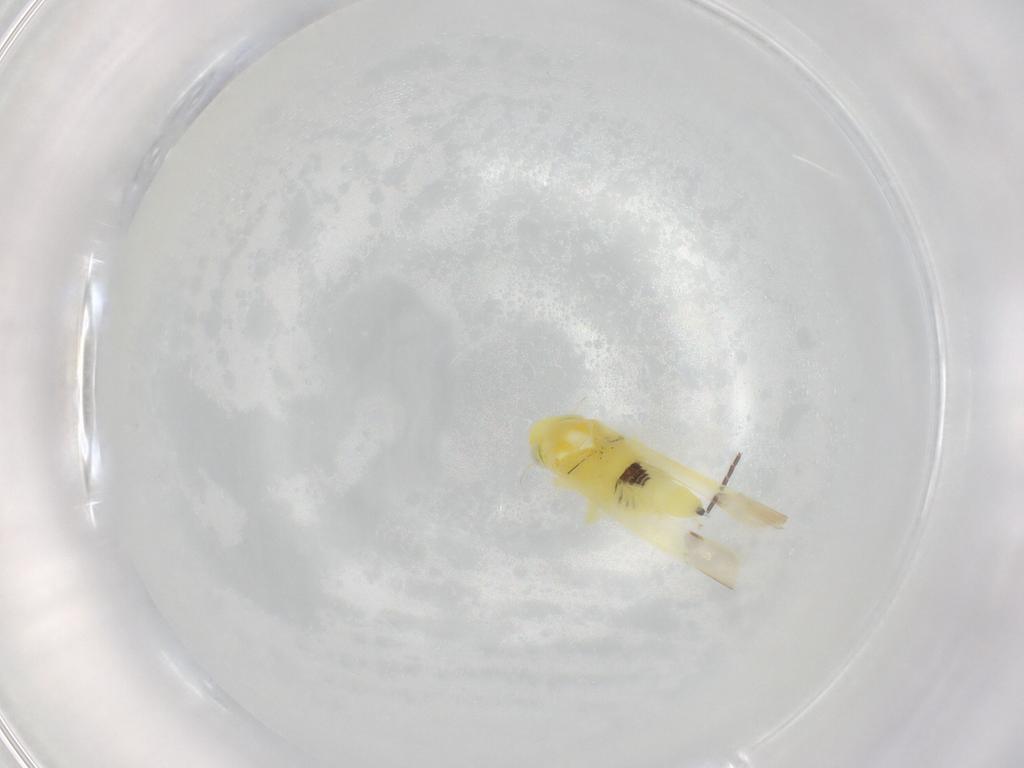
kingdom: Animalia
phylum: Arthropoda
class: Insecta
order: Hemiptera
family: Cicadellidae
